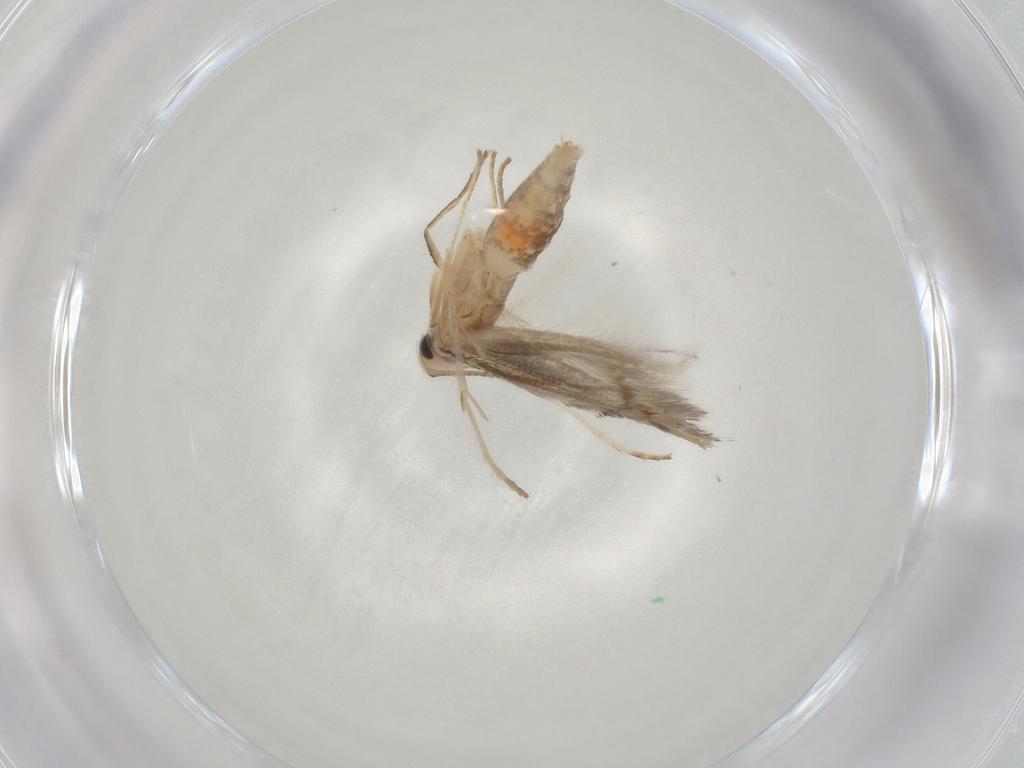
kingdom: Animalia
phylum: Arthropoda
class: Insecta
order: Lepidoptera
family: Gracillariidae
